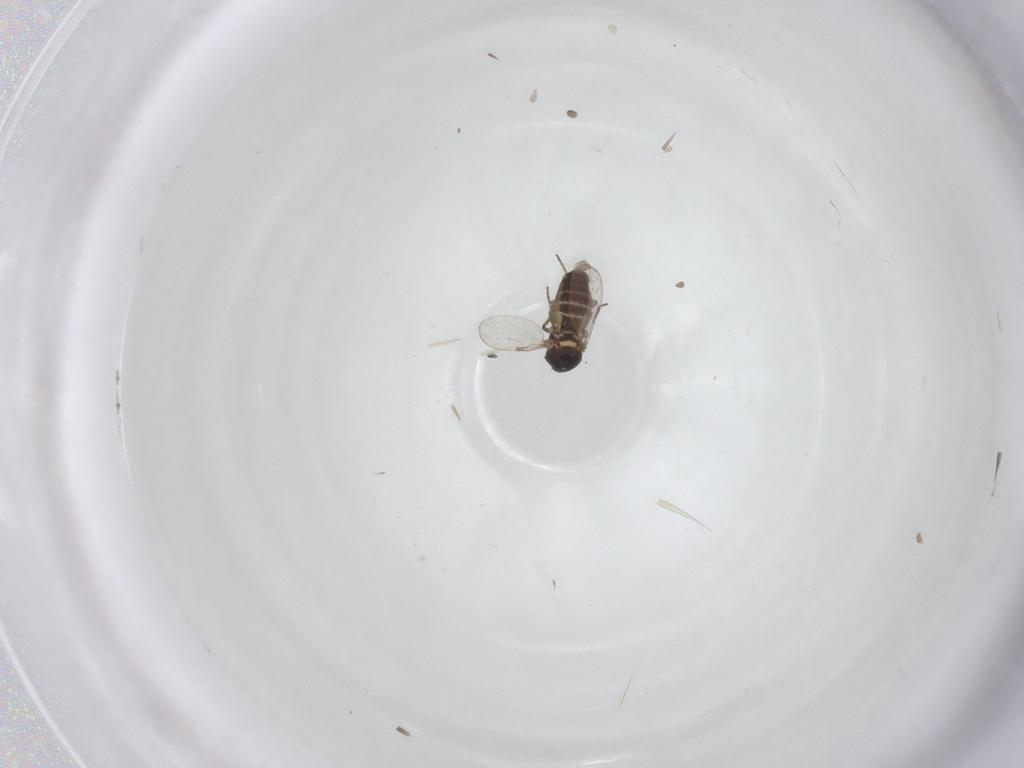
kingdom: Animalia
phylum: Arthropoda
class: Insecta
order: Diptera
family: Ceratopogonidae
